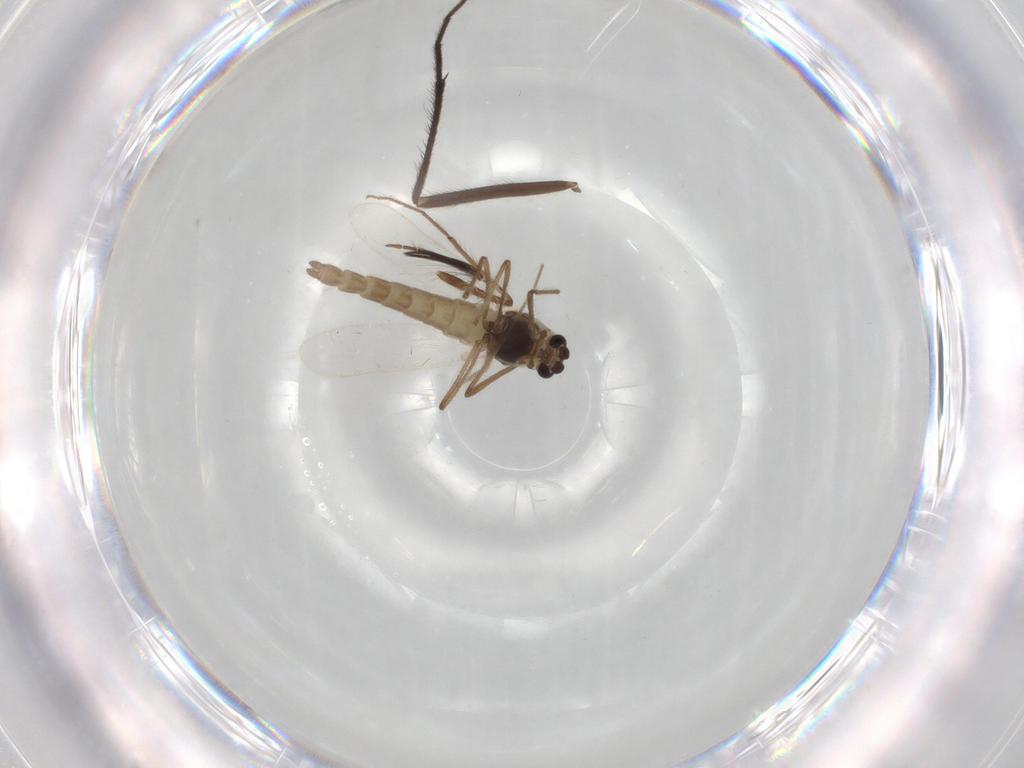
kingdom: Animalia
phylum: Arthropoda
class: Insecta
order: Diptera
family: Chironomidae
